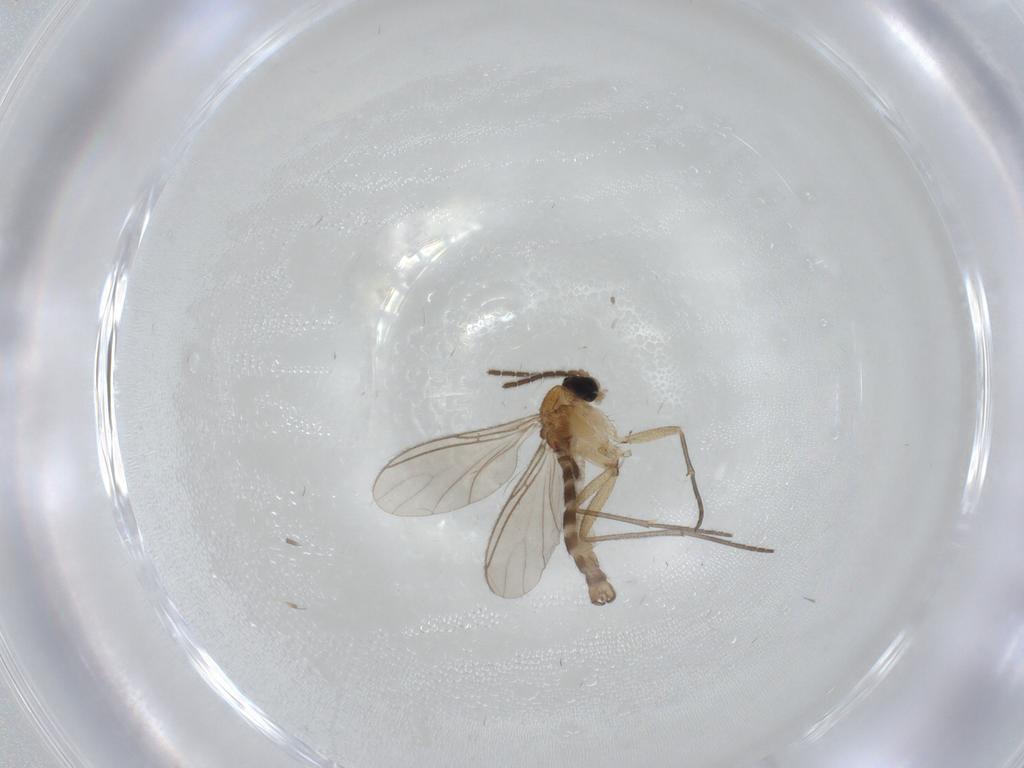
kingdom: Animalia
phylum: Arthropoda
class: Insecta
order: Diptera
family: Sciaridae
